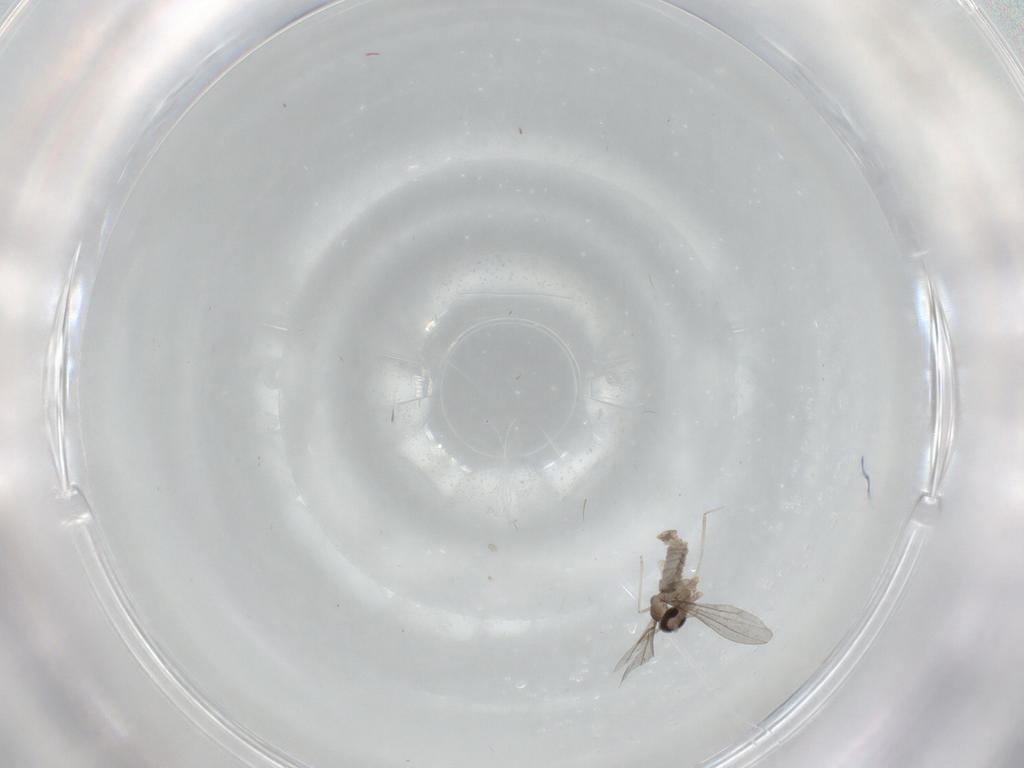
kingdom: Animalia
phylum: Arthropoda
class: Insecta
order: Diptera
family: Cecidomyiidae
